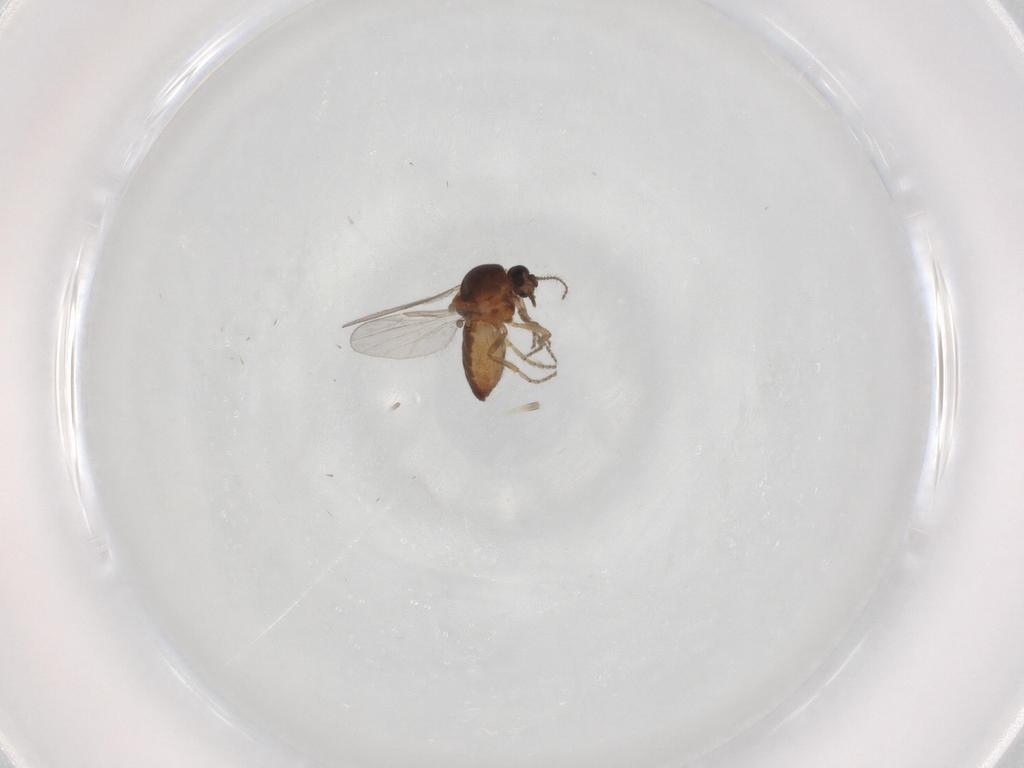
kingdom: Animalia
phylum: Arthropoda
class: Insecta
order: Diptera
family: Ceratopogonidae
